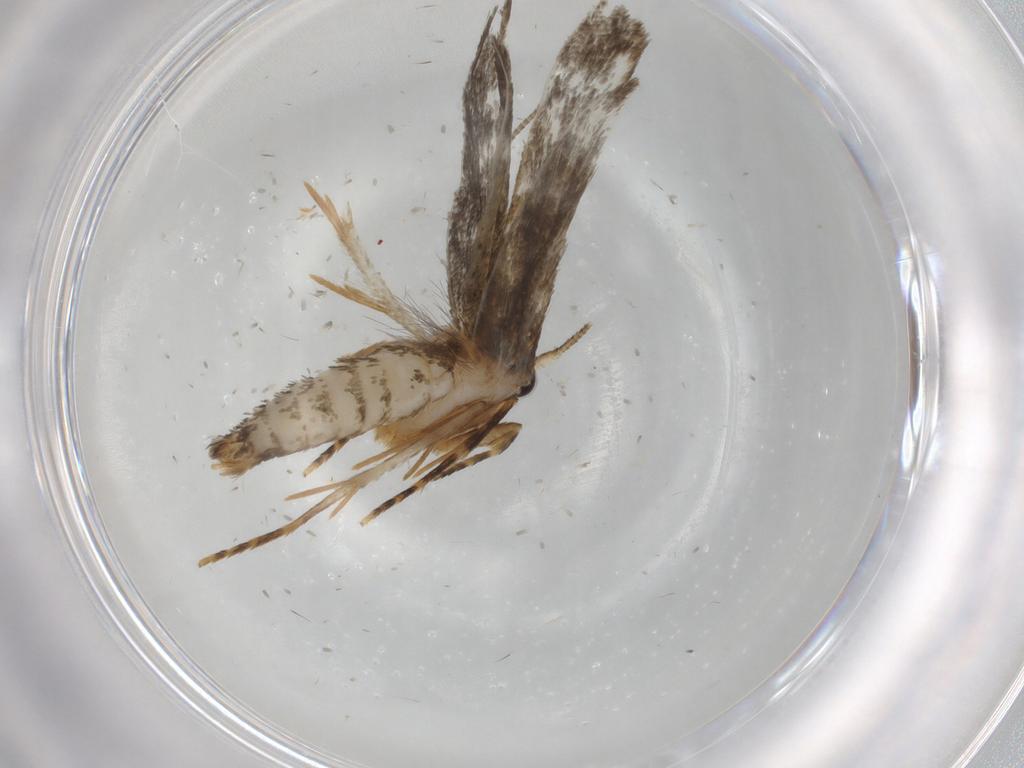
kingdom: Animalia
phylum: Arthropoda
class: Insecta
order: Lepidoptera
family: Tineidae
